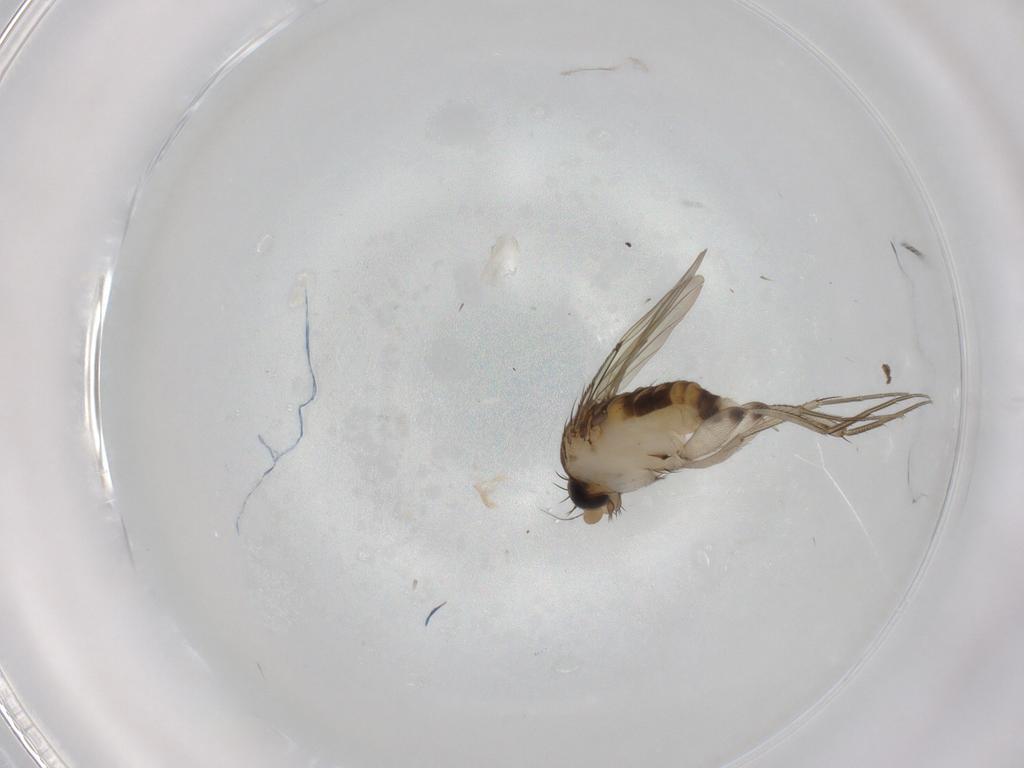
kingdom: Animalia
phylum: Arthropoda
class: Insecta
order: Diptera
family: Phoridae
